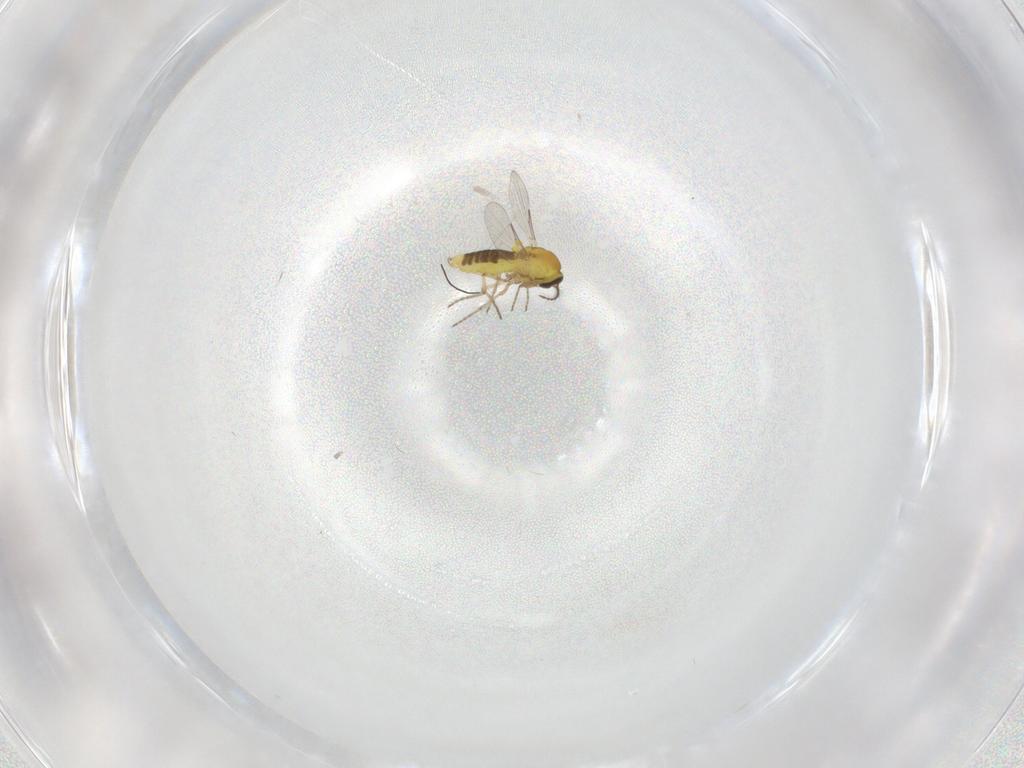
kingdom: Animalia
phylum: Arthropoda
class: Insecta
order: Diptera
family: Ceratopogonidae
